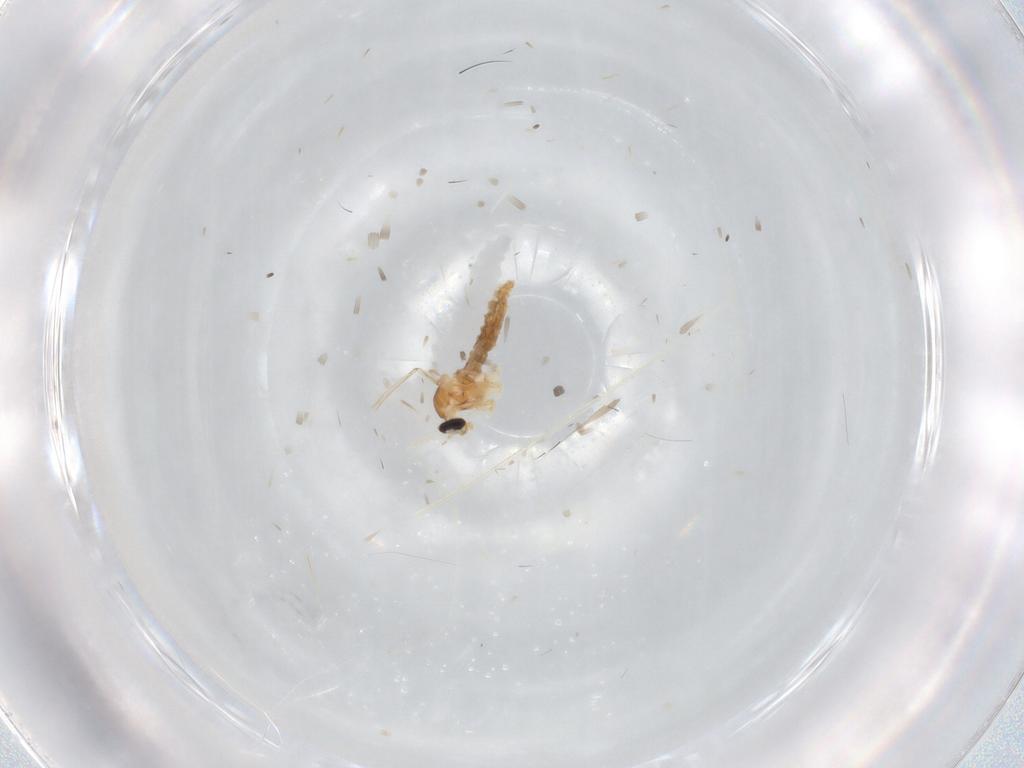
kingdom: Animalia
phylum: Arthropoda
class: Insecta
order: Diptera
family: Cecidomyiidae
